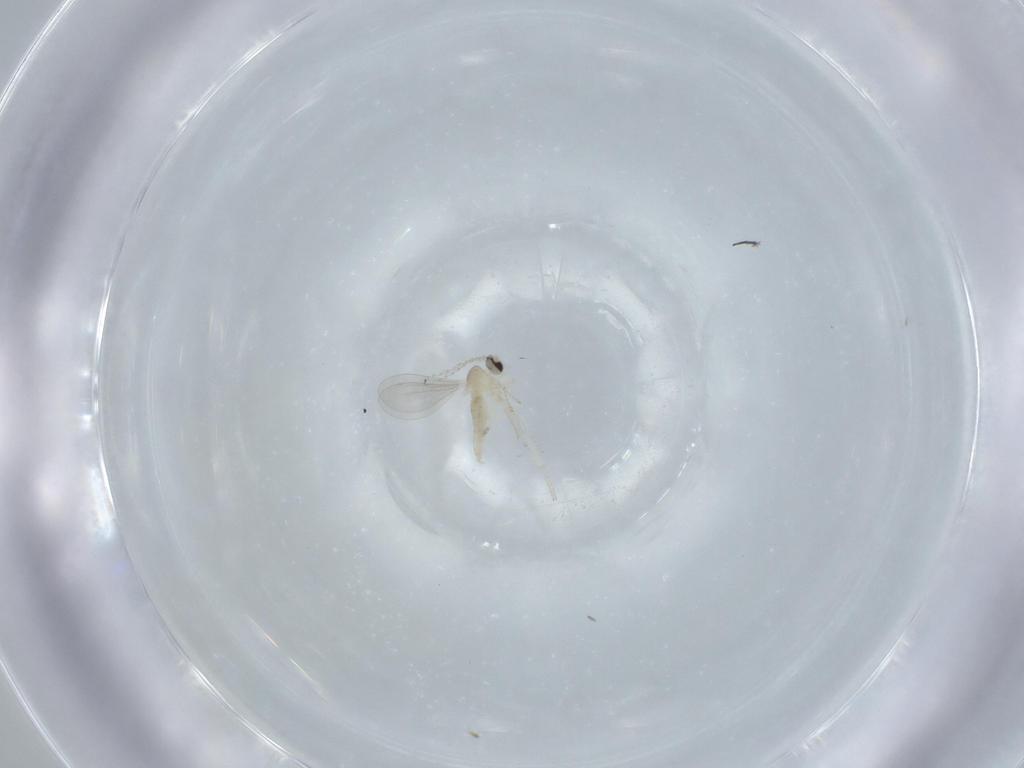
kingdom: Animalia
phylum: Arthropoda
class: Insecta
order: Diptera
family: Cecidomyiidae
